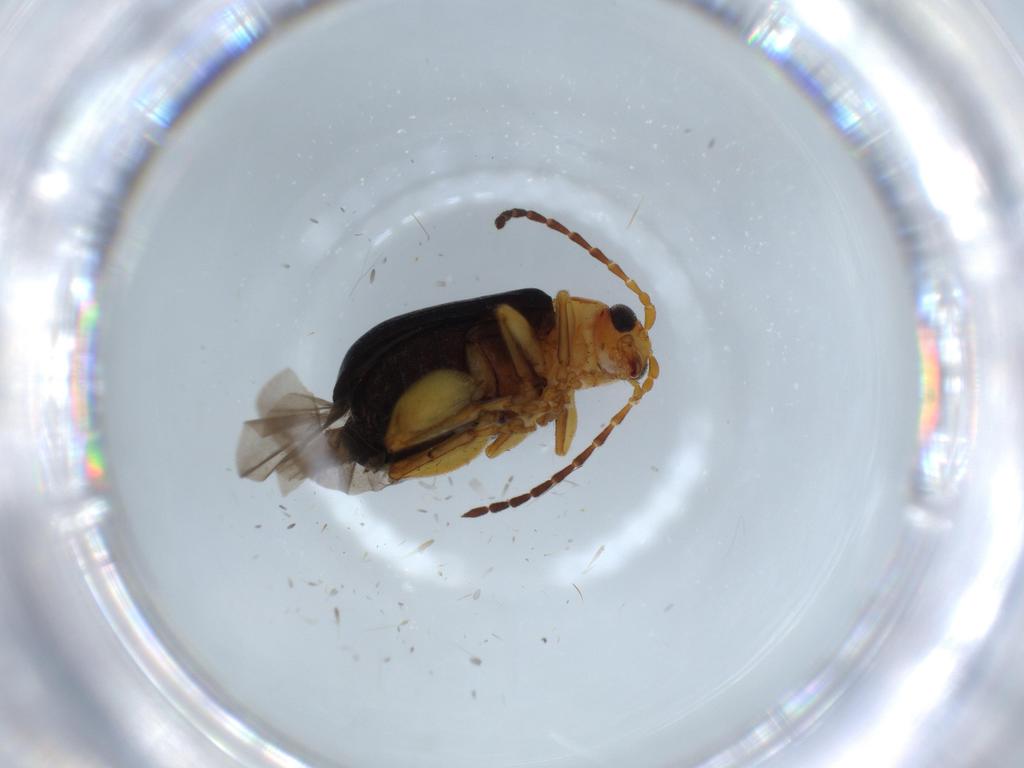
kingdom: Animalia
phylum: Arthropoda
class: Insecta
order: Coleoptera
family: Chrysomelidae
